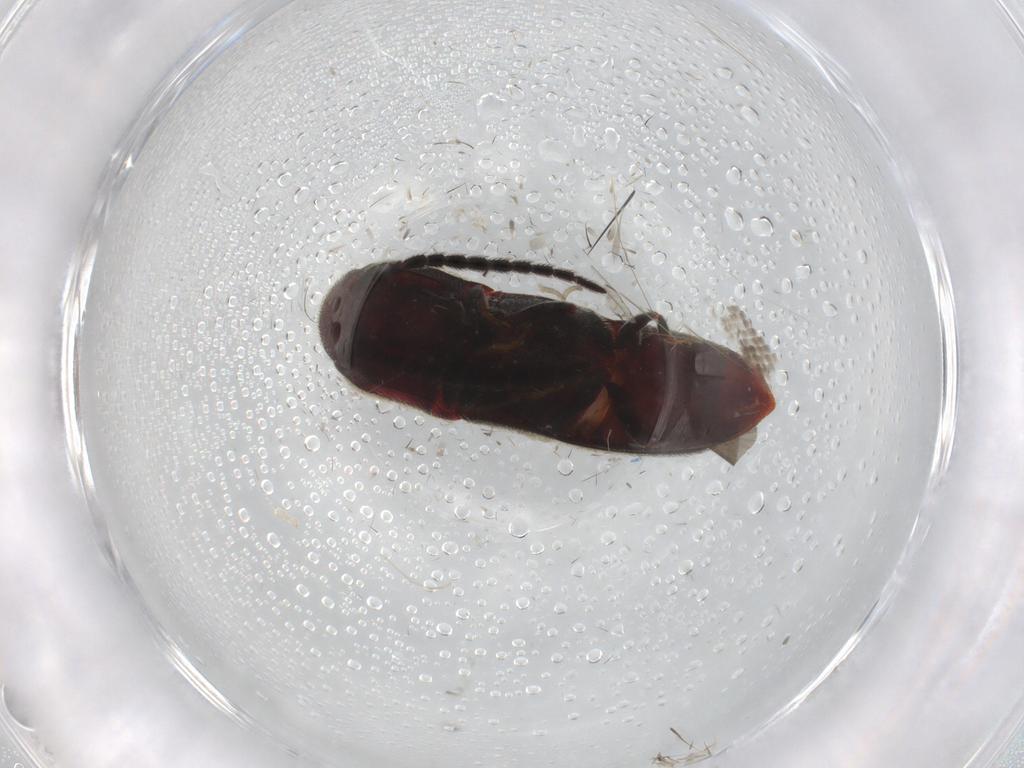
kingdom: Animalia
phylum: Arthropoda
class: Insecta
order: Coleoptera
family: Eucnemidae
